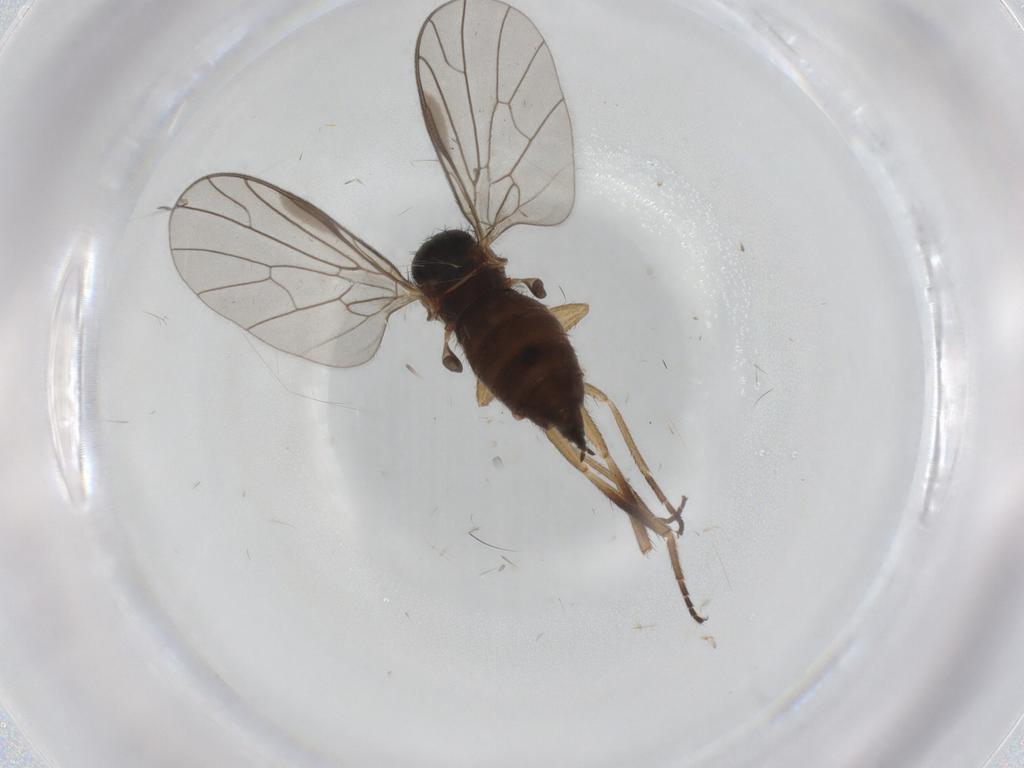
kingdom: Animalia
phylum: Arthropoda
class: Insecta
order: Diptera
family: Empididae
